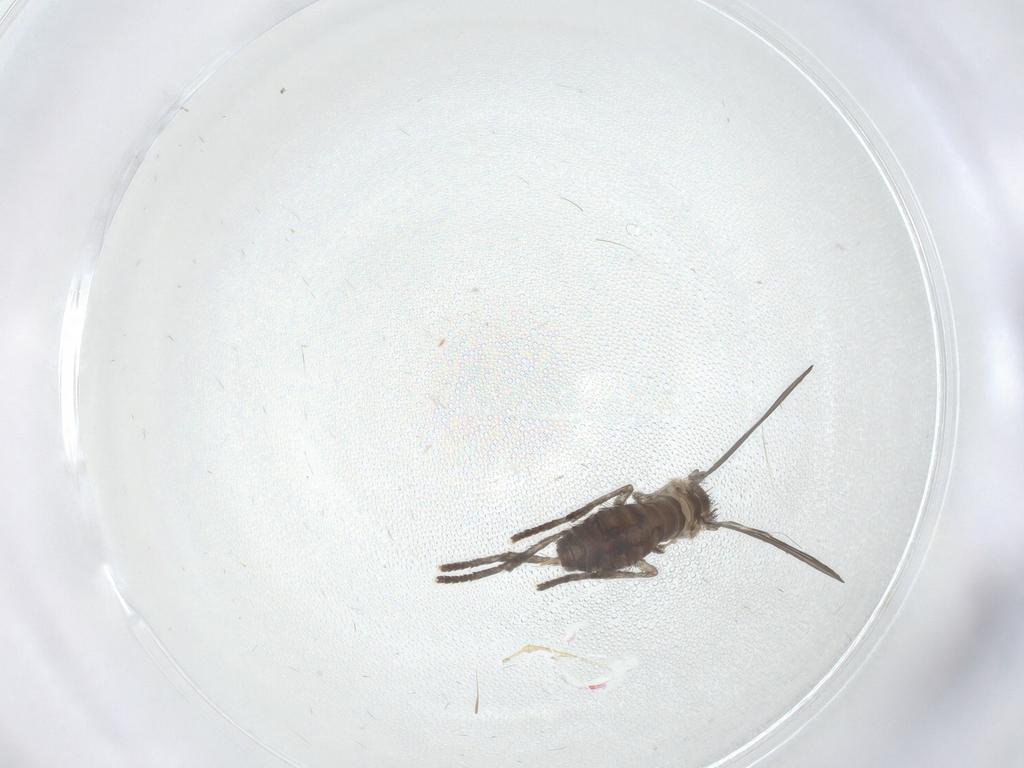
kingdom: Animalia
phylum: Arthropoda
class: Insecta
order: Diptera
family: Psychodidae
